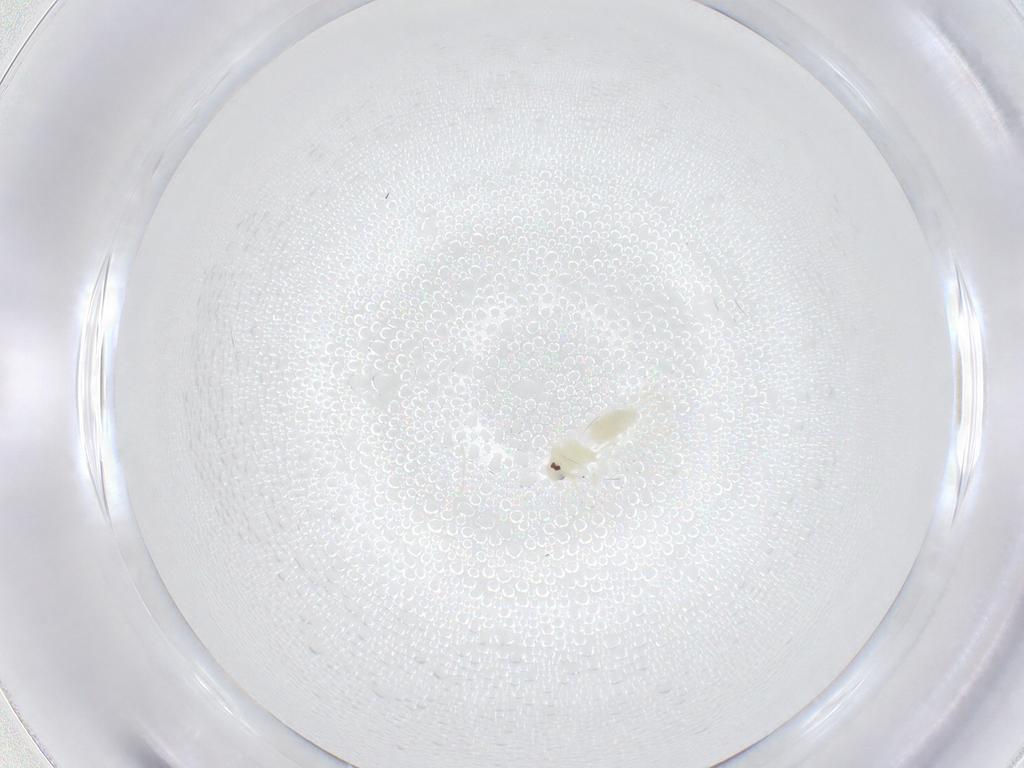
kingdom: Animalia
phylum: Arthropoda
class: Insecta
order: Hemiptera
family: Aleyrodidae
